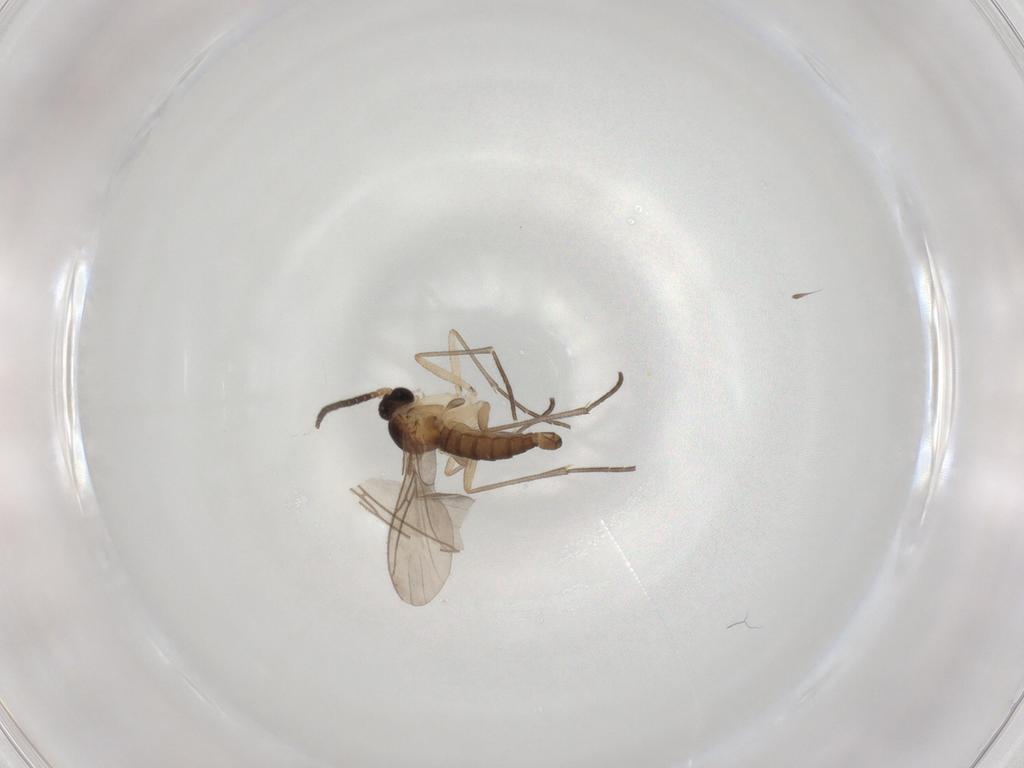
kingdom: Animalia
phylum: Arthropoda
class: Insecta
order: Diptera
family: Sciaridae
